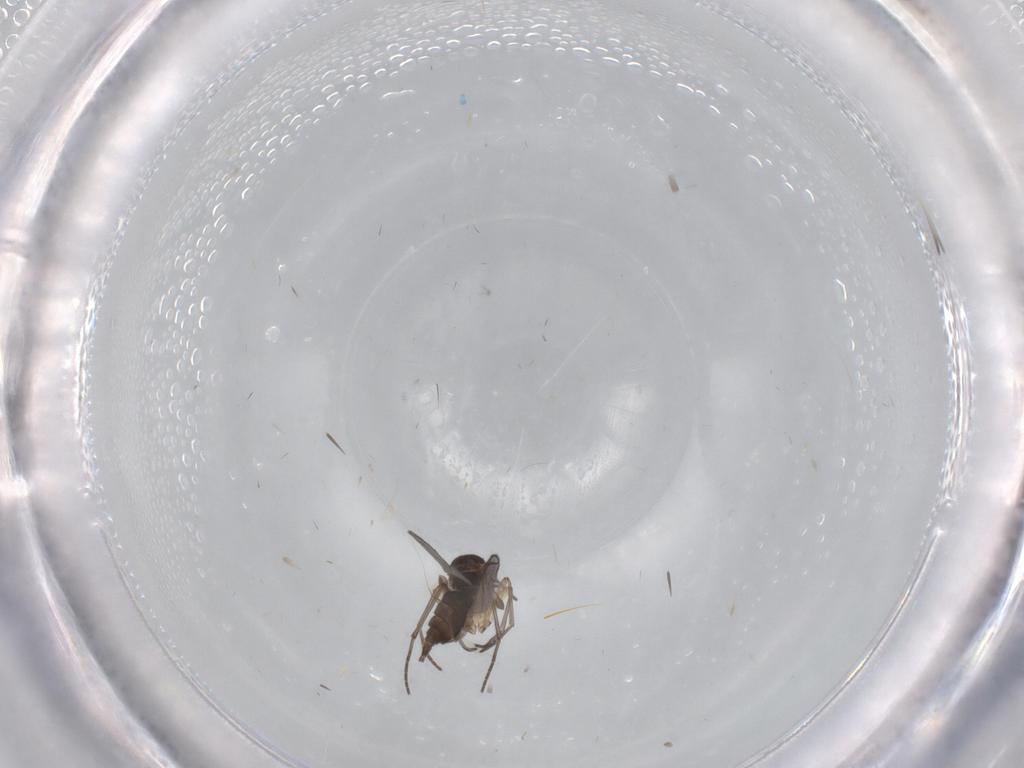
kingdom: Animalia
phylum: Arthropoda
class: Insecta
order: Diptera
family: Sciaridae
